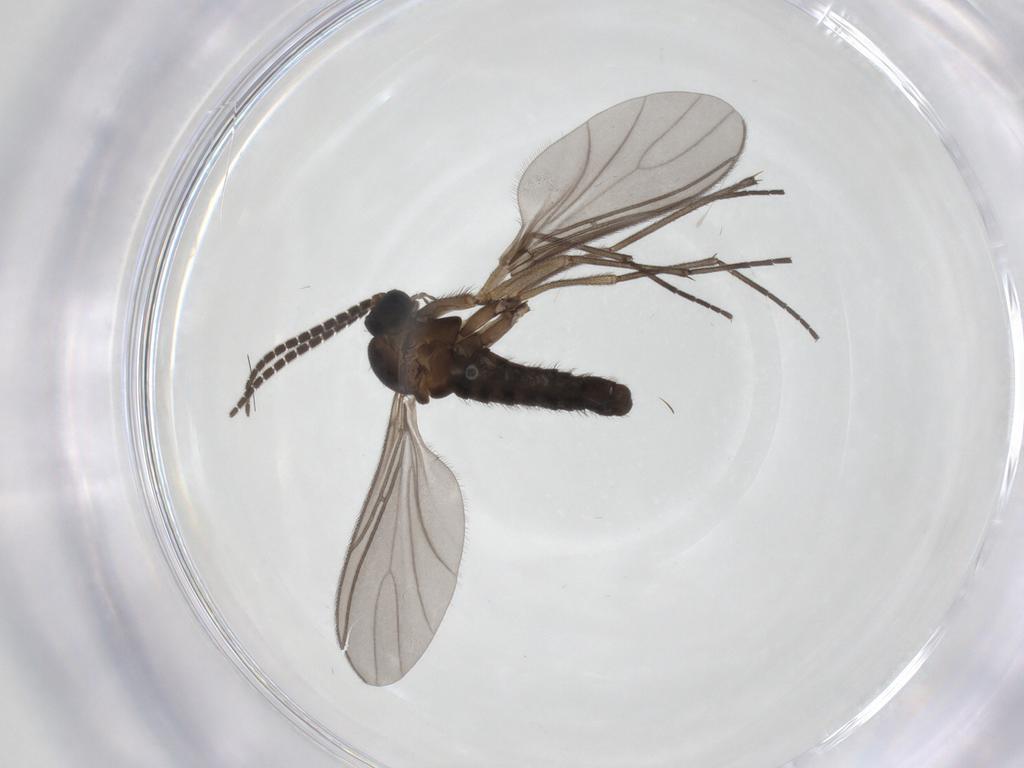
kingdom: Animalia
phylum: Arthropoda
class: Insecta
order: Diptera
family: Sciaridae
